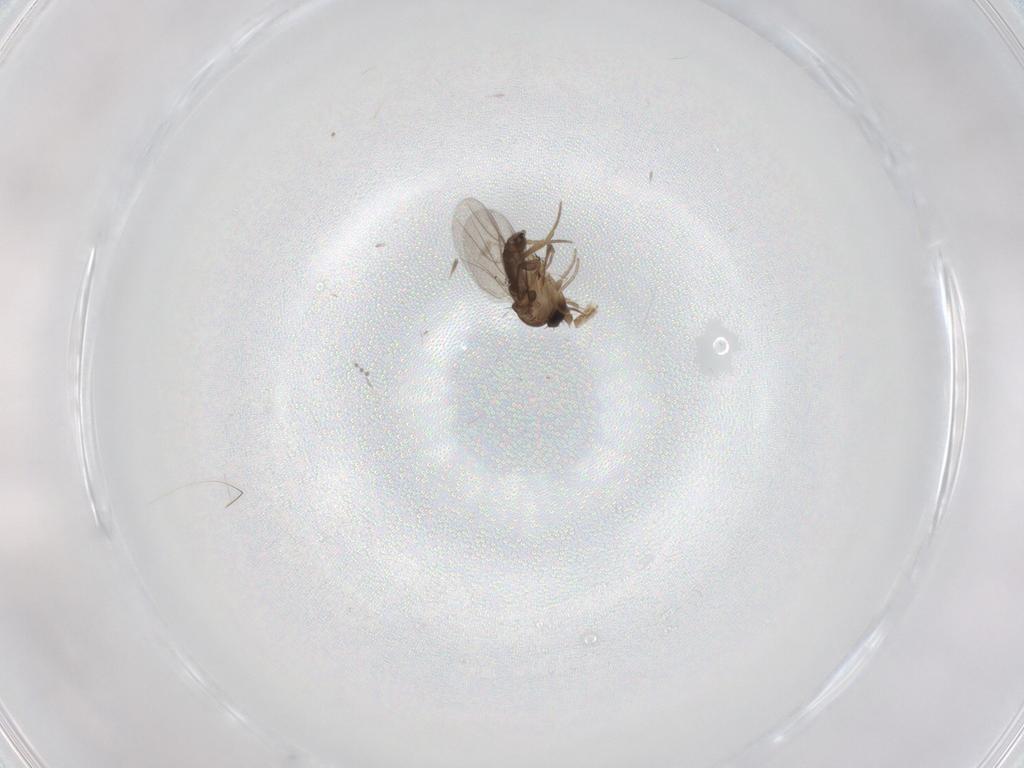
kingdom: Animalia
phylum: Arthropoda
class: Insecta
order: Diptera
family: Phoridae
